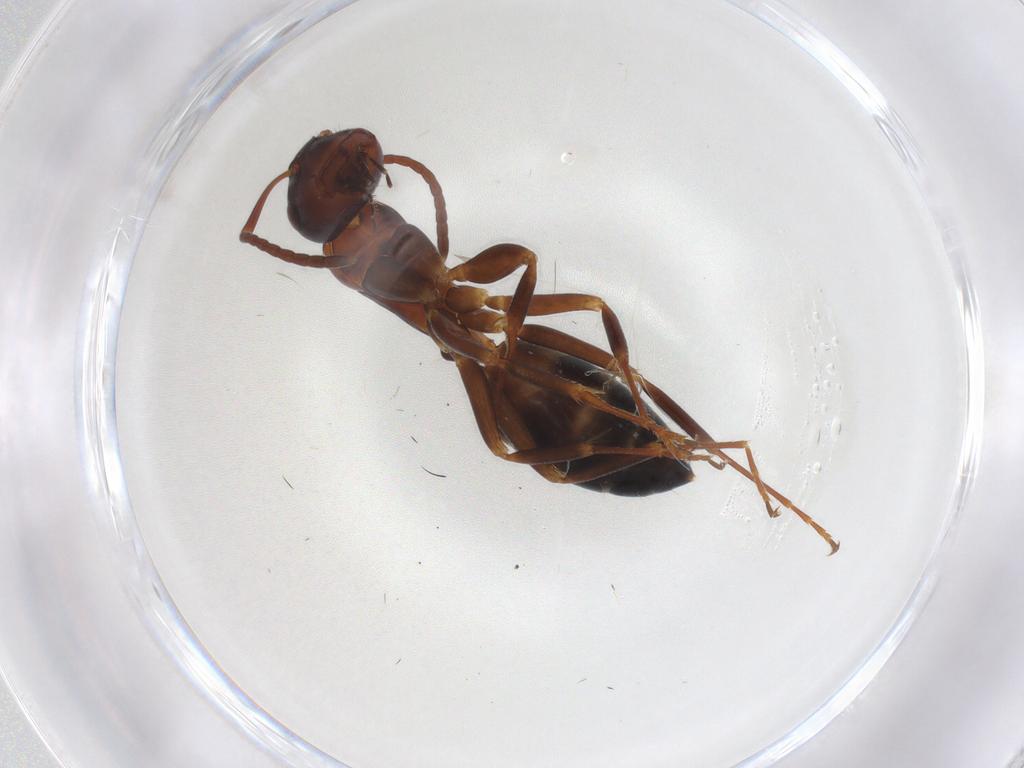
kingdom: Animalia
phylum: Arthropoda
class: Insecta
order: Hymenoptera
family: Formicidae
